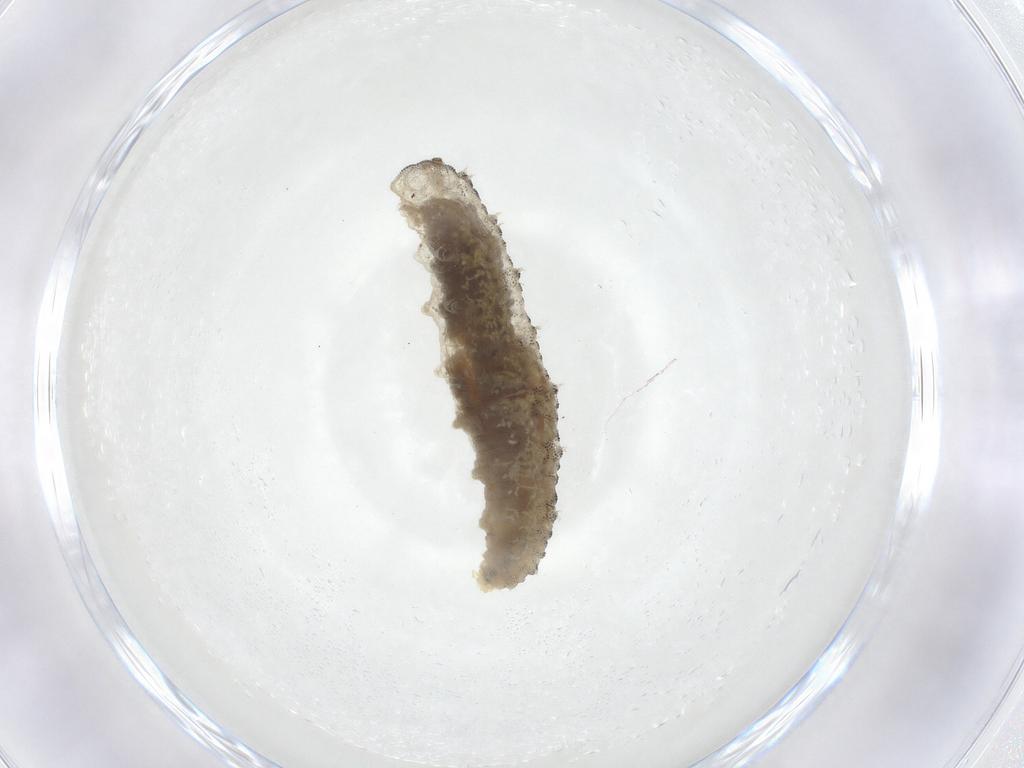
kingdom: Animalia
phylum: Arthropoda
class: Insecta
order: Diptera
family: Syrphidae
